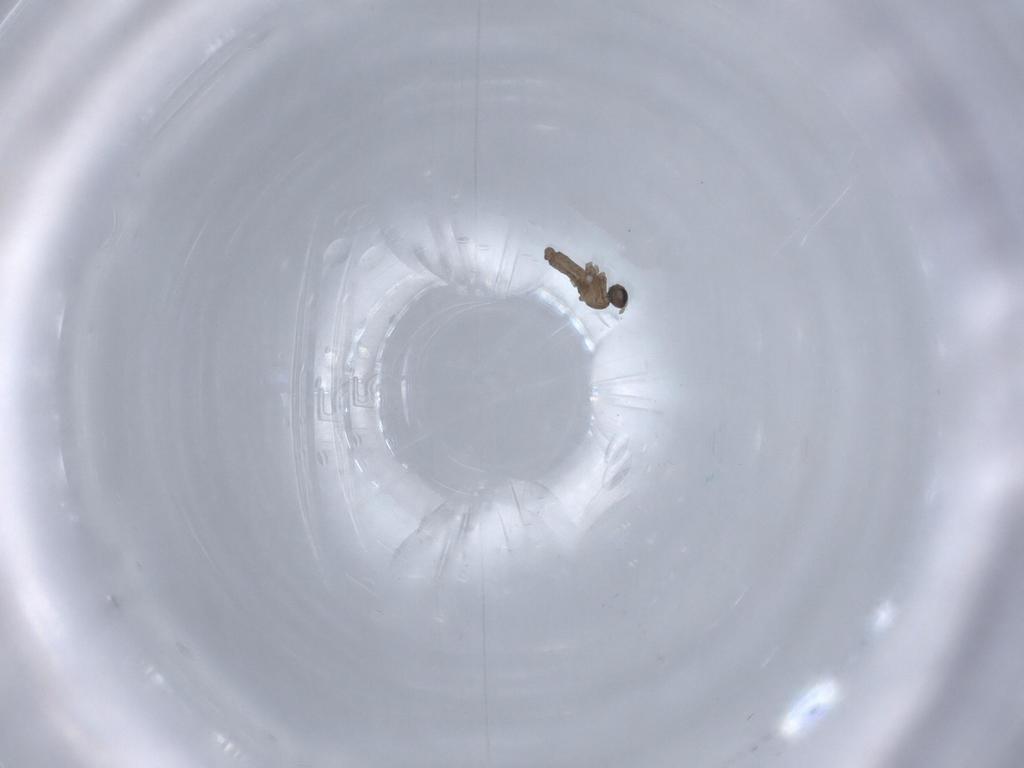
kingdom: Animalia
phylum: Arthropoda
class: Insecta
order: Diptera
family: Cecidomyiidae
